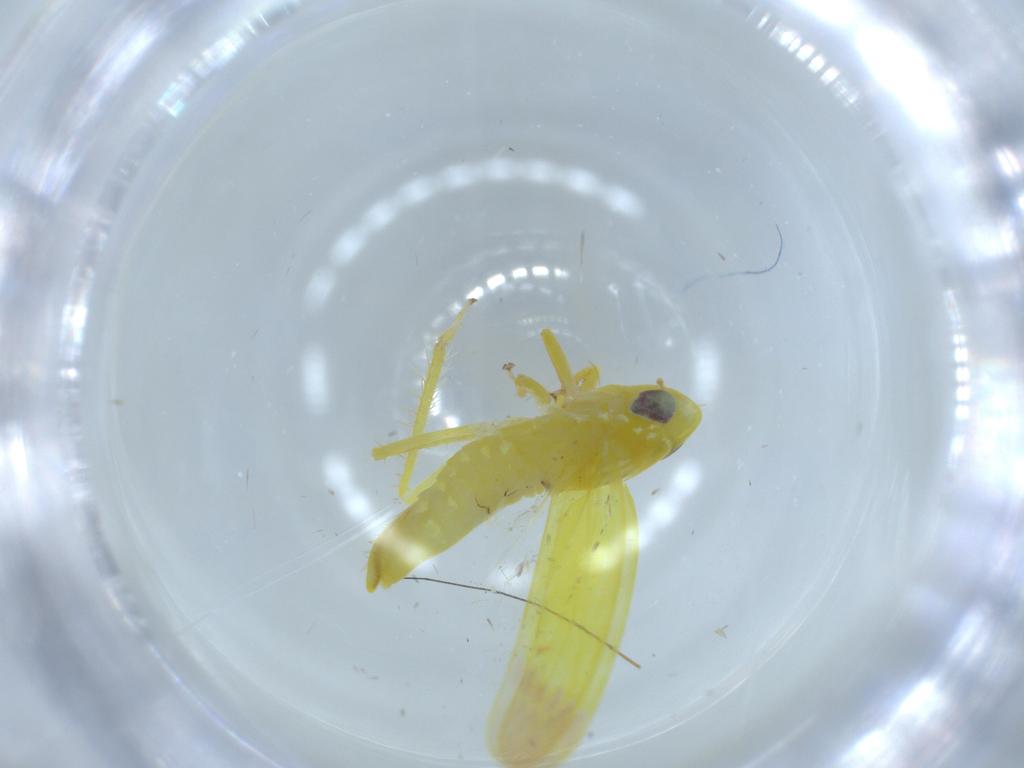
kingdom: Animalia
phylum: Arthropoda
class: Insecta
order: Hemiptera
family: Cicadellidae
